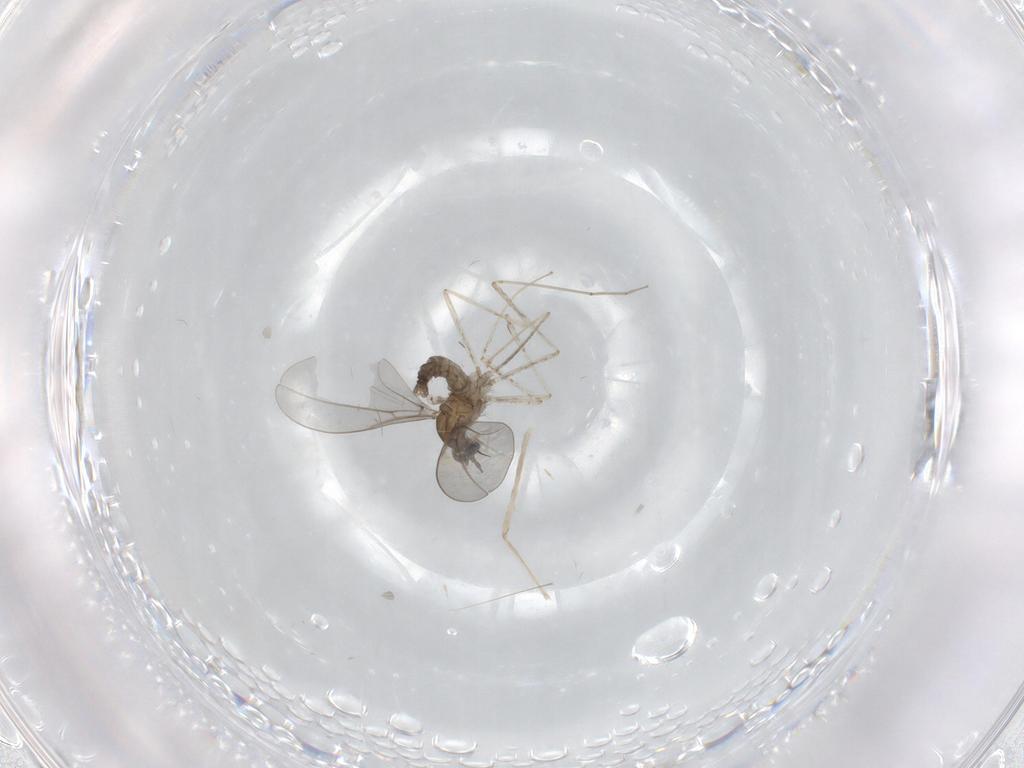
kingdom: Animalia
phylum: Arthropoda
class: Insecta
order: Diptera
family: Cecidomyiidae
